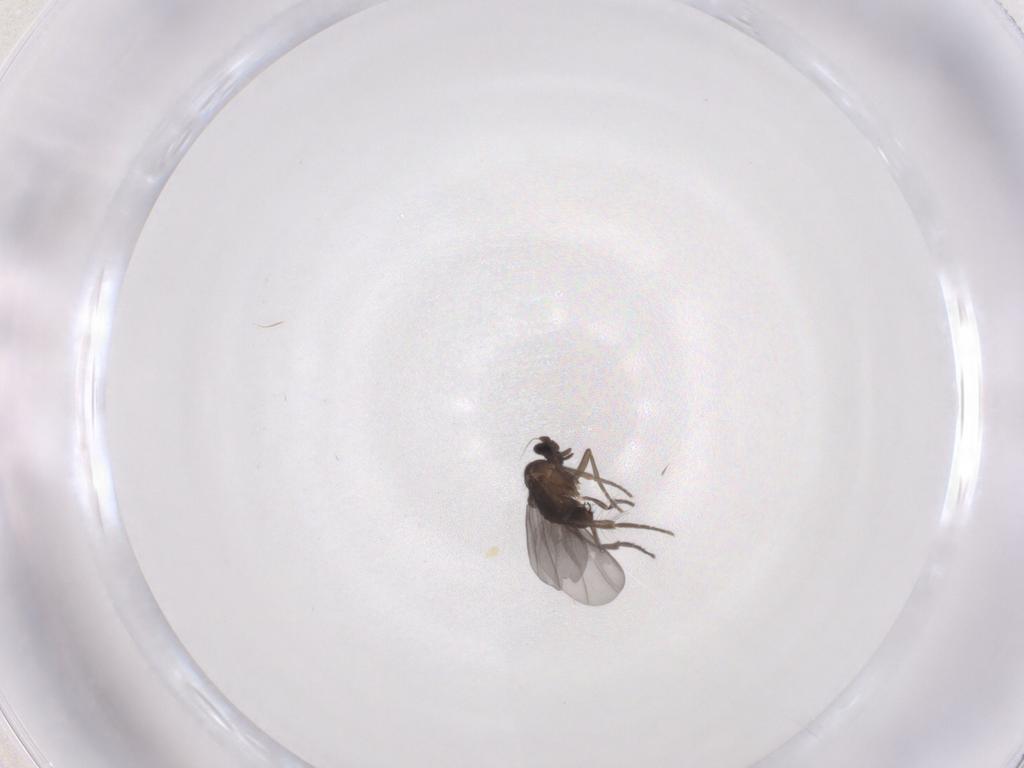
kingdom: Animalia
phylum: Arthropoda
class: Insecta
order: Diptera
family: Phoridae
